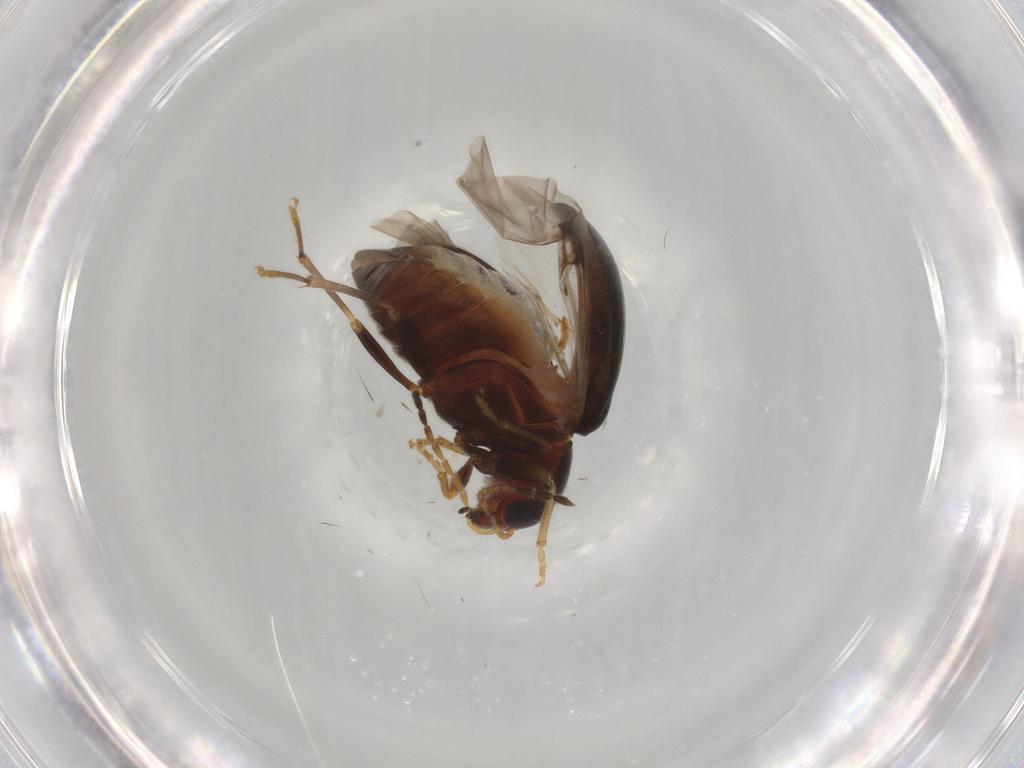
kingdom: Animalia
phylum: Arthropoda
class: Insecta
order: Coleoptera
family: Chrysomelidae
